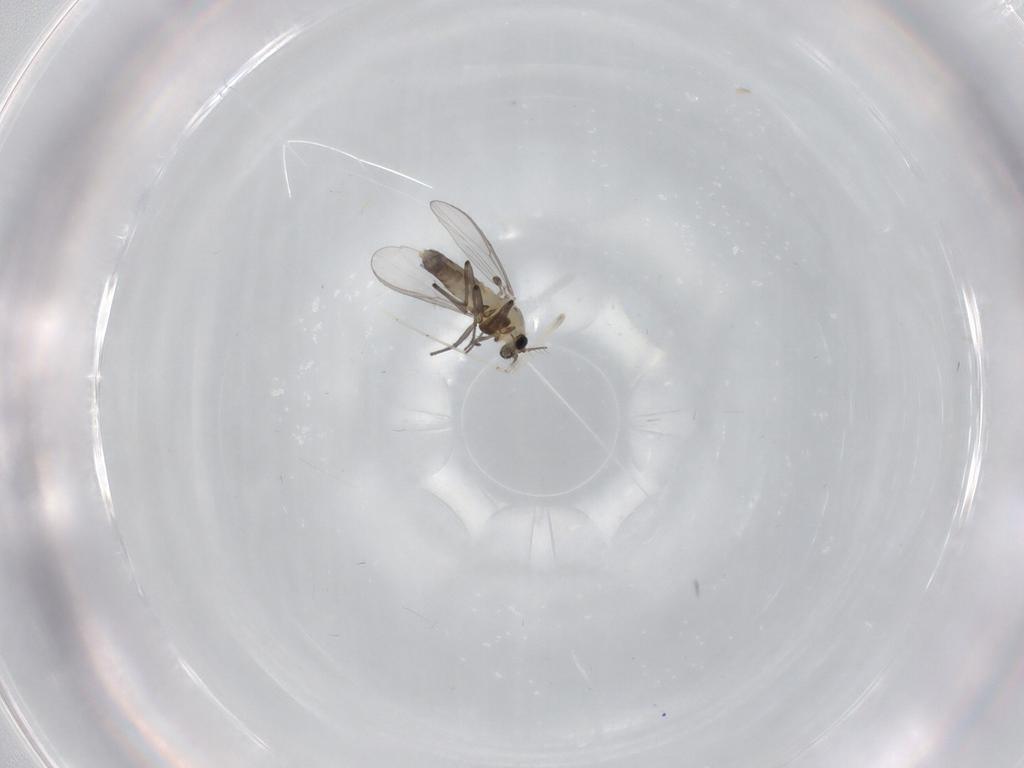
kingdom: Animalia
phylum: Arthropoda
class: Insecta
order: Diptera
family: Chironomidae
